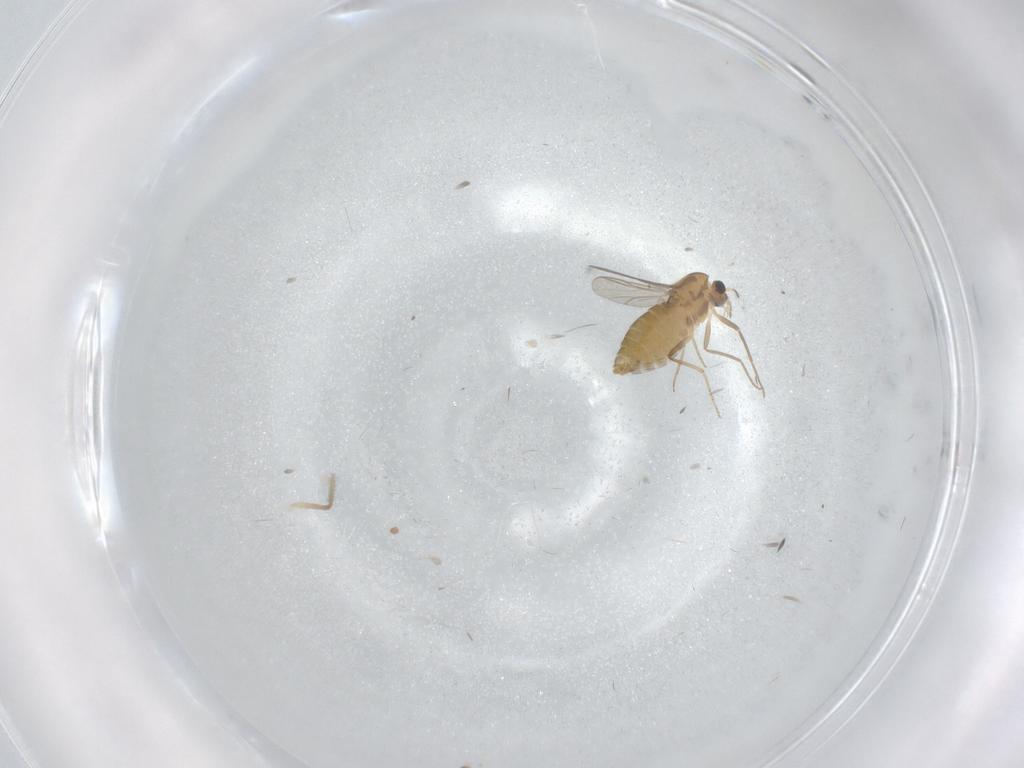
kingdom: Animalia
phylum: Arthropoda
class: Insecta
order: Diptera
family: Chironomidae
